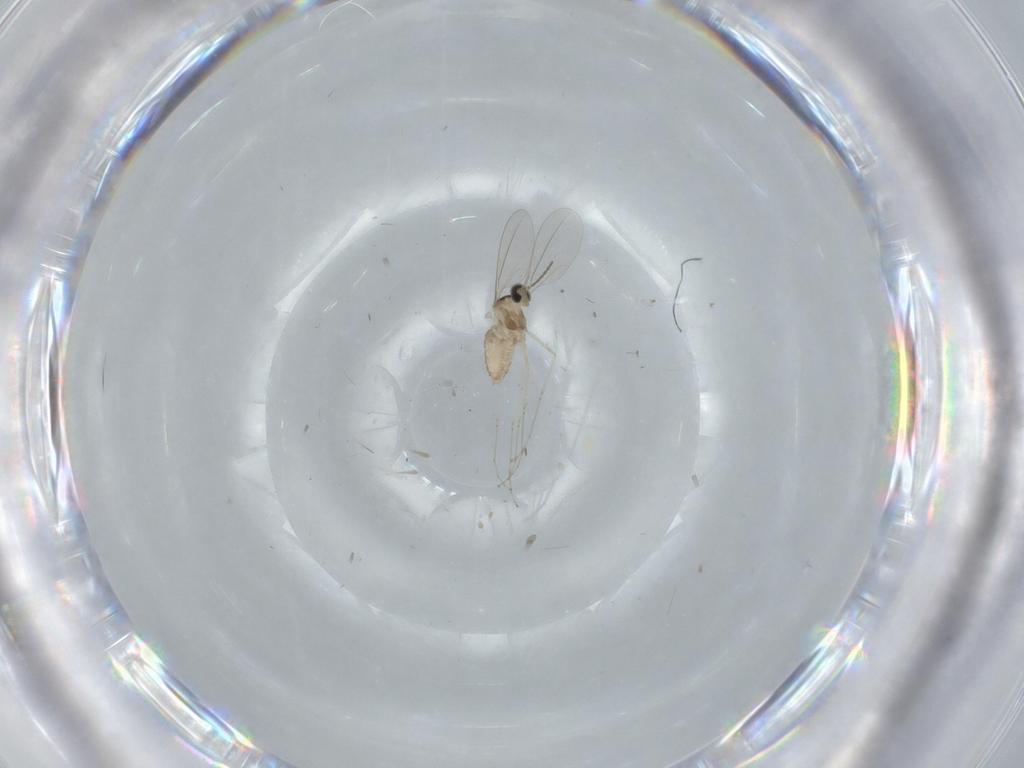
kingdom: Animalia
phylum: Arthropoda
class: Insecta
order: Diptera
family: Cecidomyiidae
